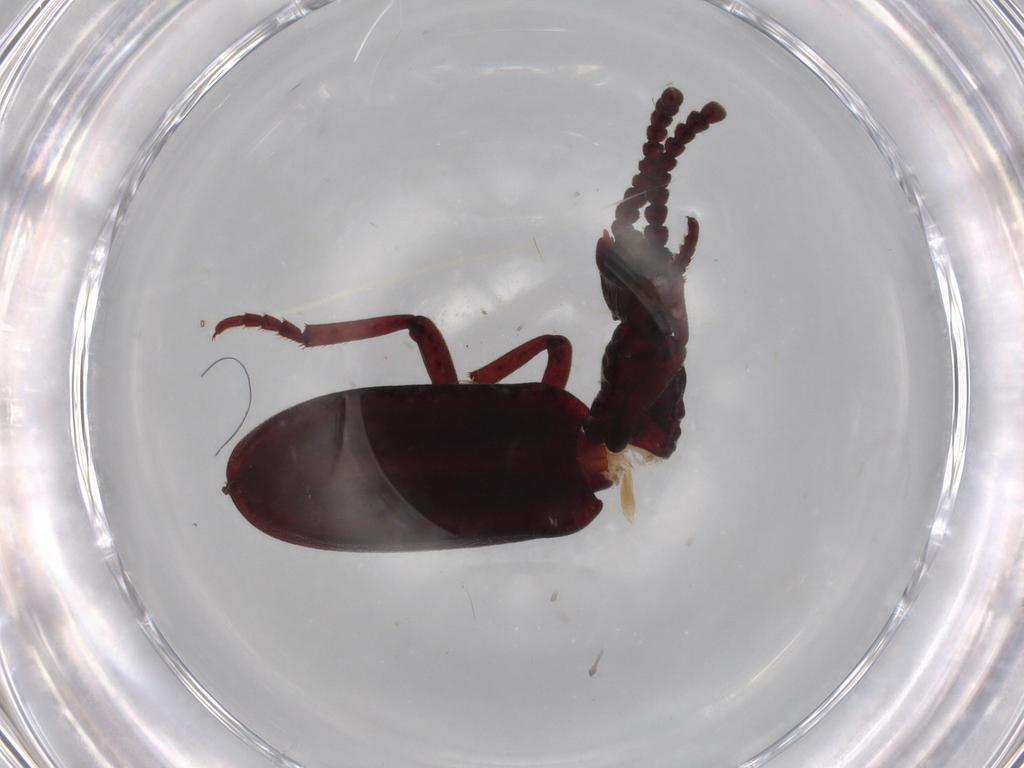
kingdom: Animalia
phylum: Arthropoda
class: Insecta
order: Coleoptera
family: Anthicidae
